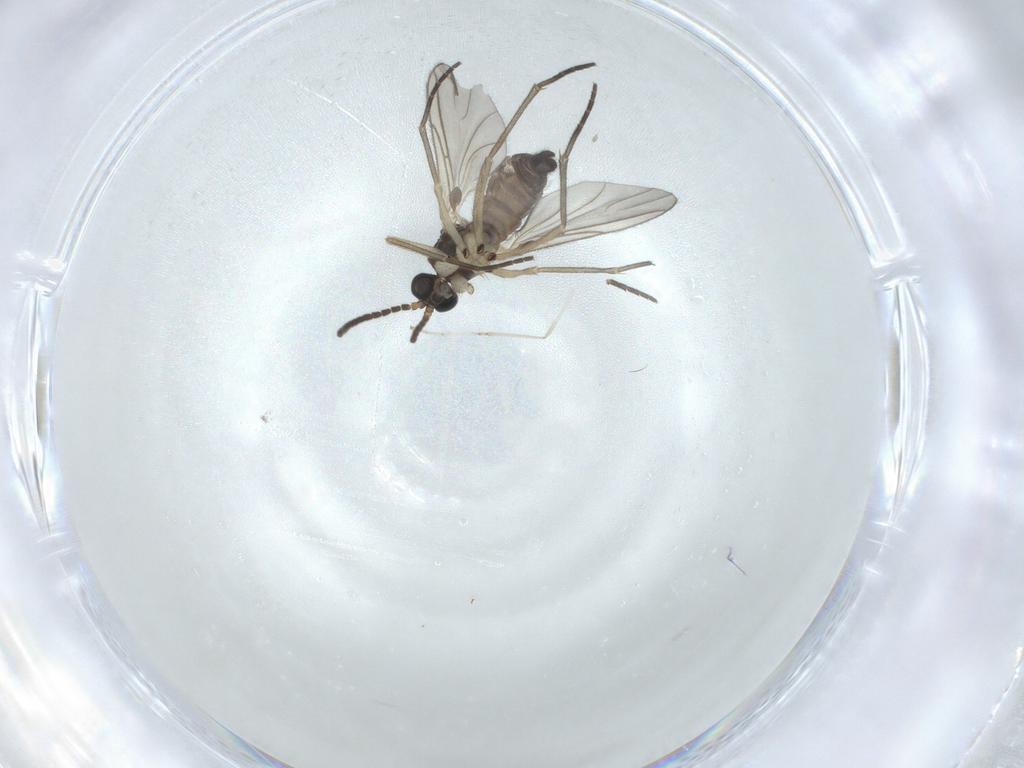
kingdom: Animalia
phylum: Arthropoda
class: Insecta
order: Diptera
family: Sciaridae
